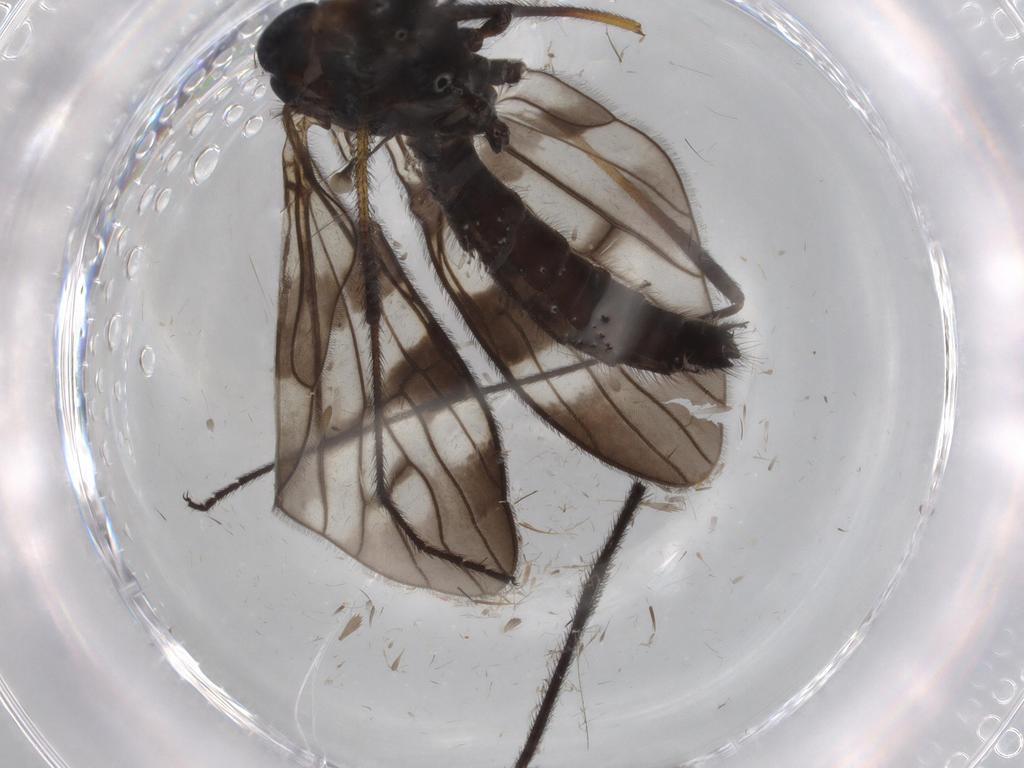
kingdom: Animalia
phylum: Arthropoda
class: Insecta
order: Diptera
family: Limoniidae
